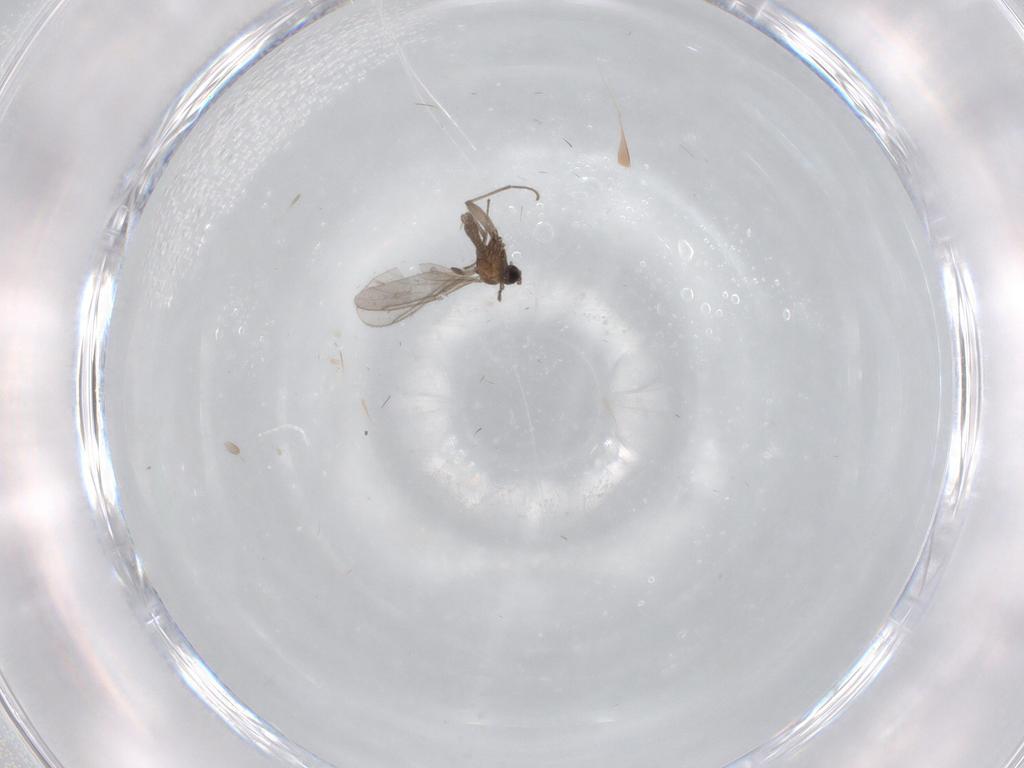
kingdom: Animalia
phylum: Arthropoda
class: Insecta
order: Diptera
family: Sciaridae
